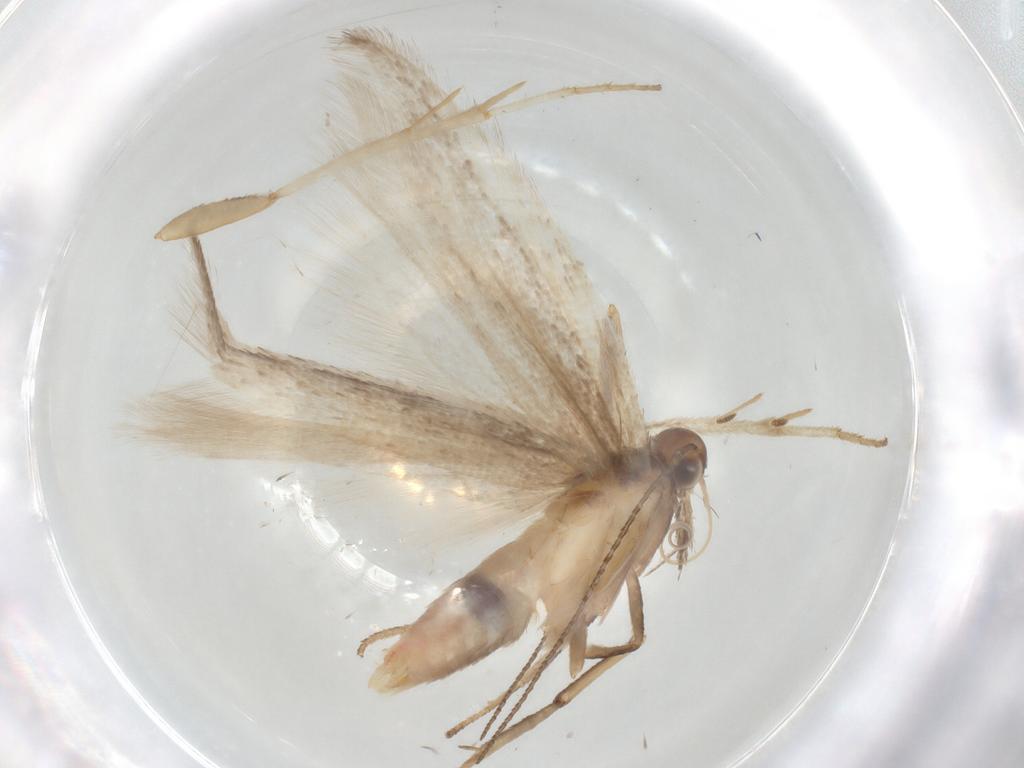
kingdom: Animalia
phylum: Arthropoda
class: Insecta
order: Lepidoptera
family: Gelechiidae
